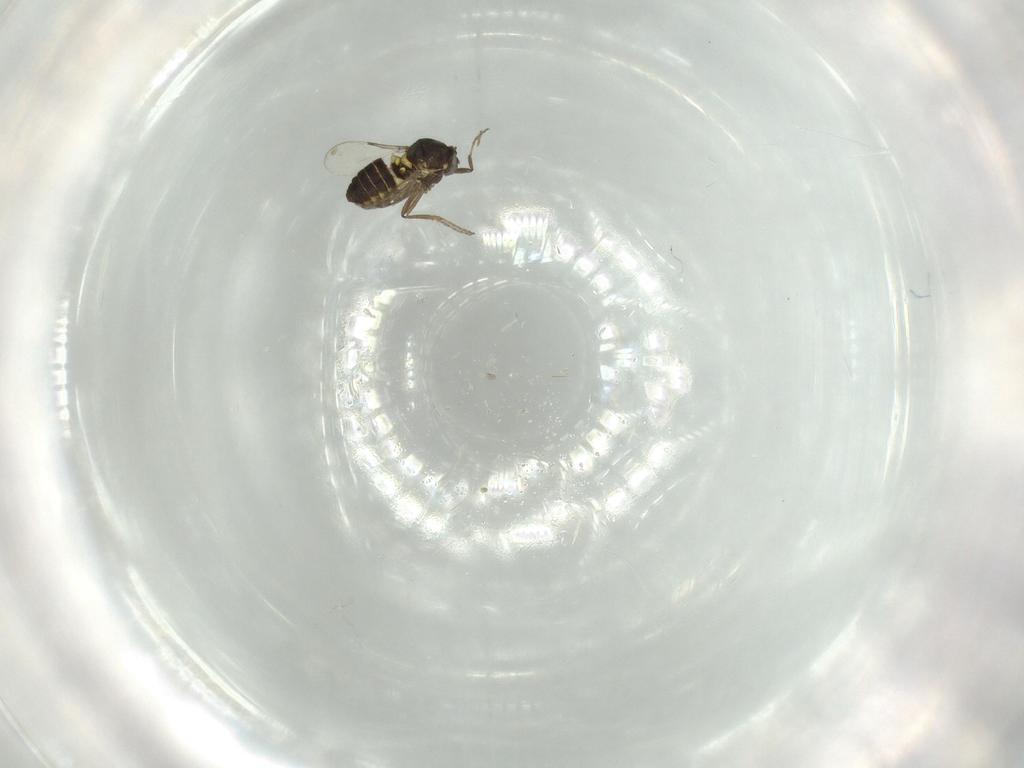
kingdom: Animalia
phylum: Arthropoda
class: Insecta
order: Diptera
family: Ceratopogonidae
